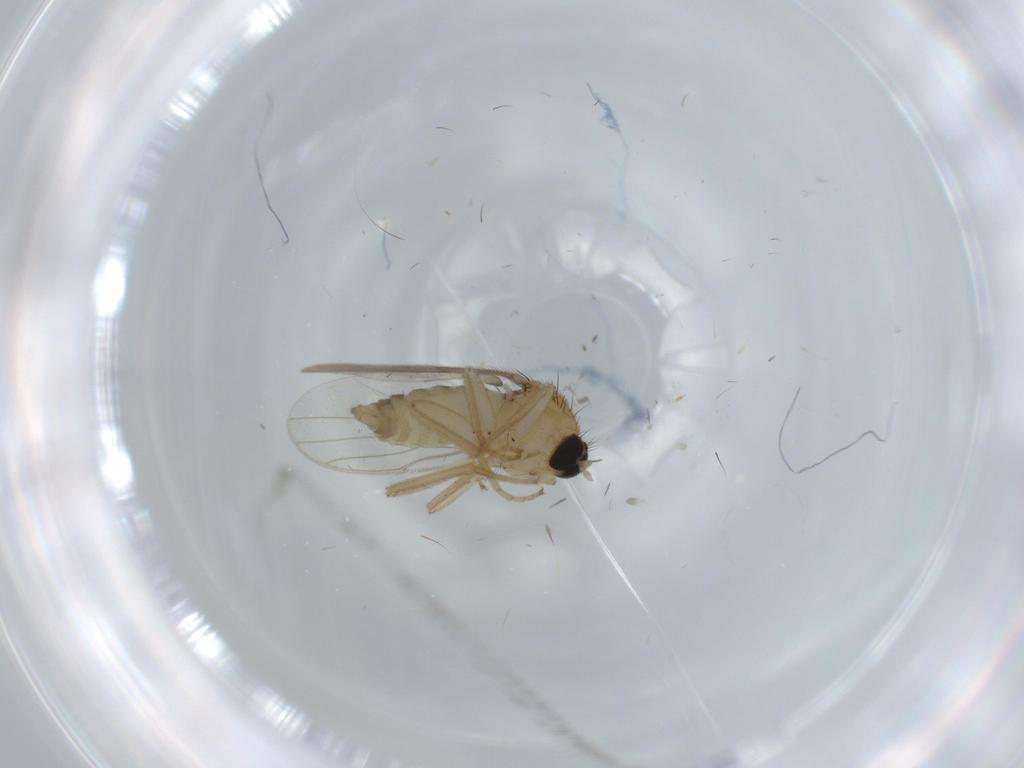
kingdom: Animalia
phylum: Arthropoda
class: Insecta
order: Diptera
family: Hybotidae
